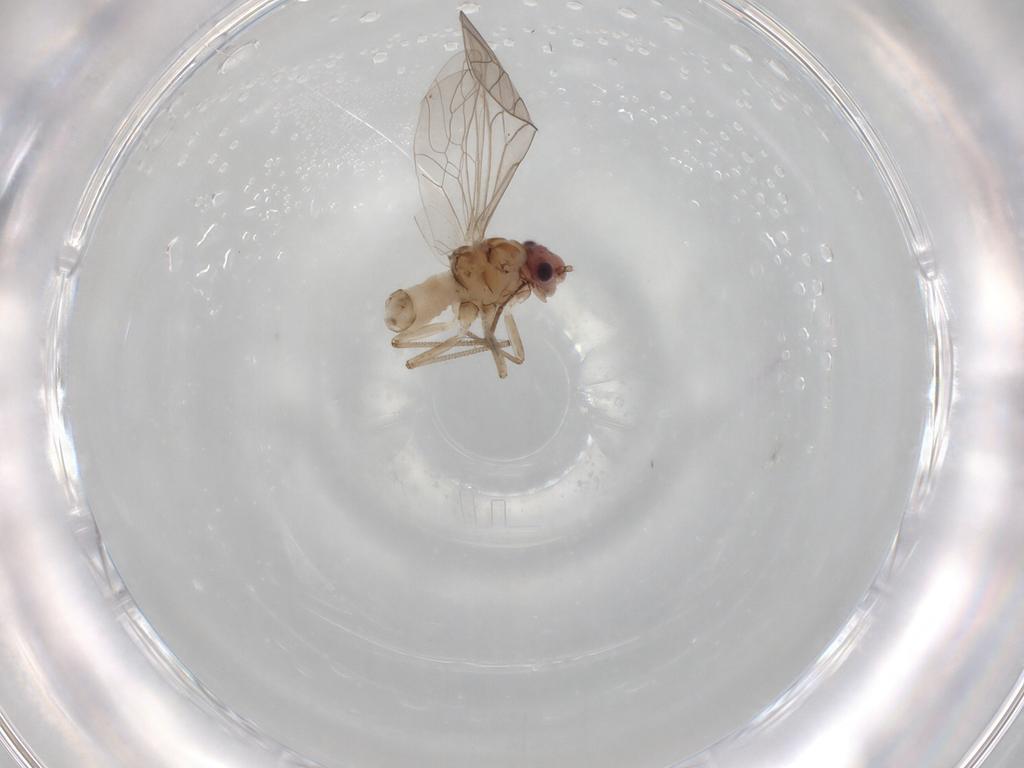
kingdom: Animalia
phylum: Arthropoda
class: Insecta
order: Psocodea
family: Peripsocidae
